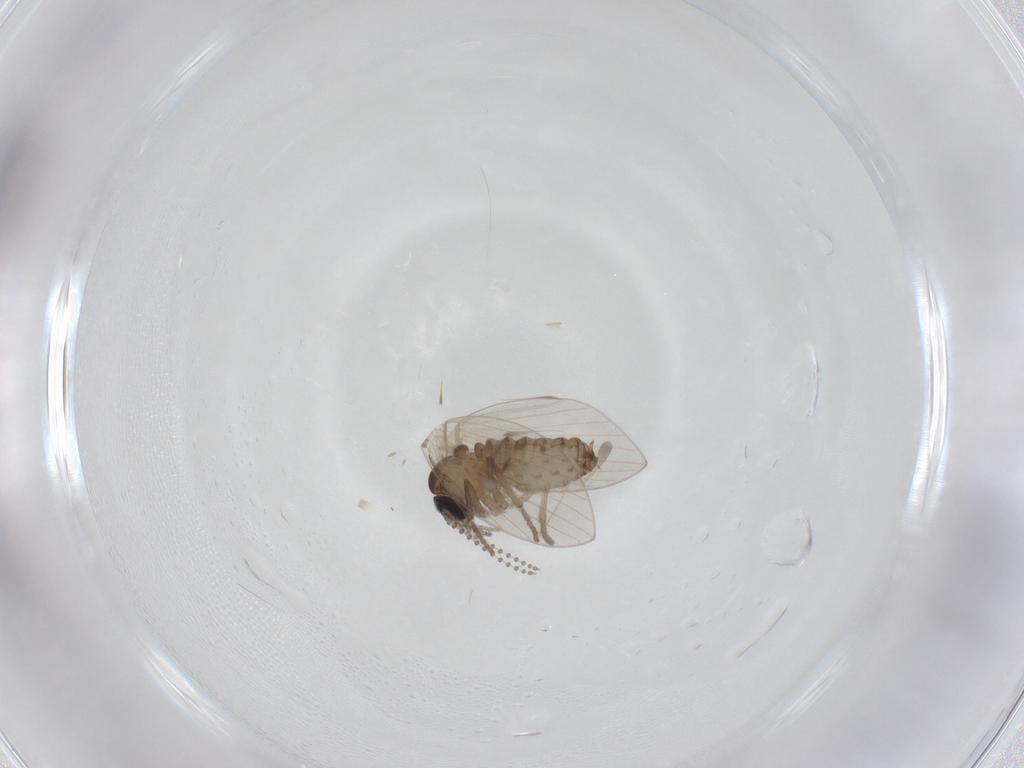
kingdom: Animalia
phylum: Arthropoda
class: Insecta
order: Diptera
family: Psychodidae
